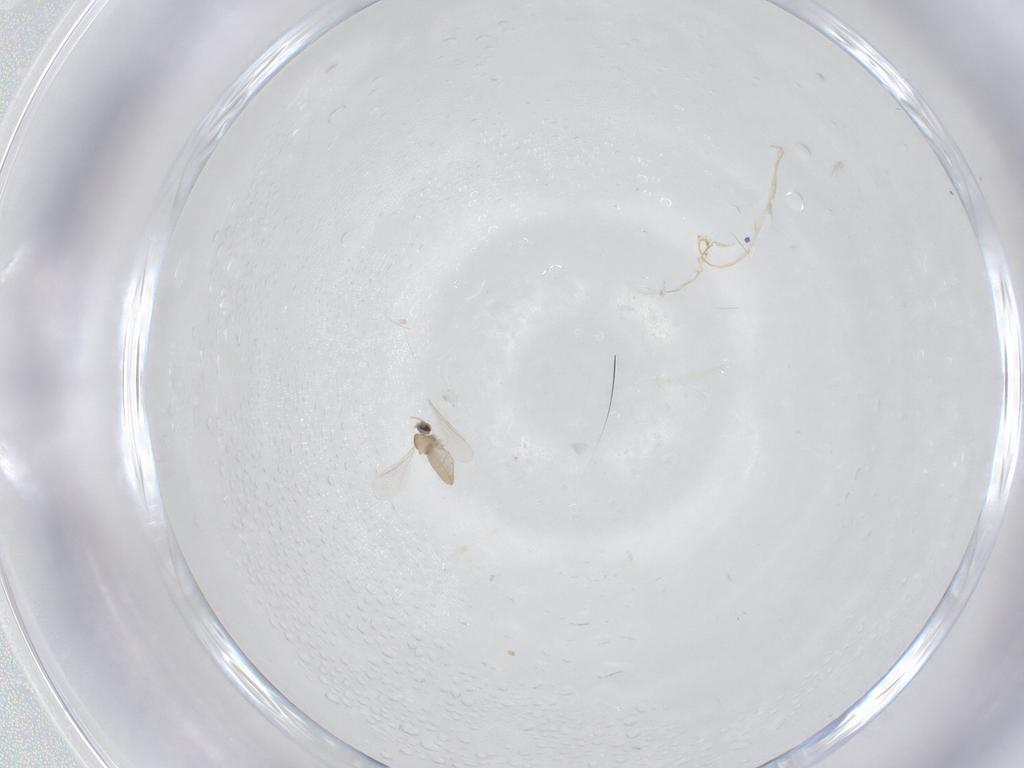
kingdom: Animalia
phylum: Arthropoda
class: Insecta
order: Diptera
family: Cecidomyiidae
